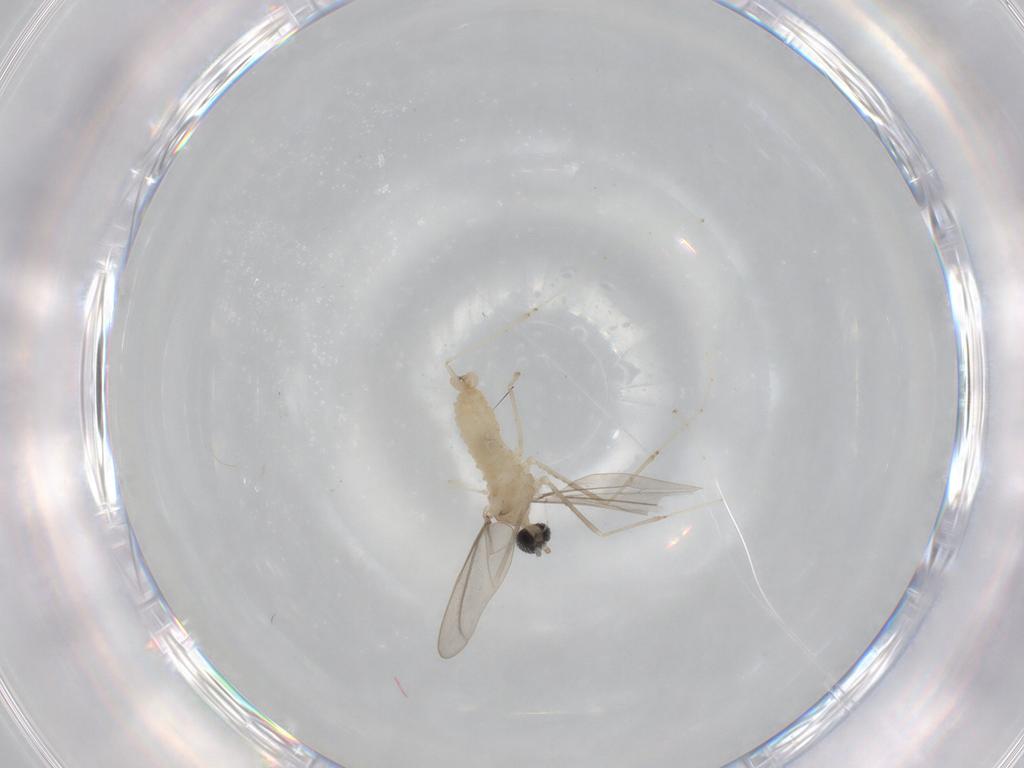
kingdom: Animalia
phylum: Arthropoda
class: Insecta
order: Diptera
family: Cecidomyiidae
